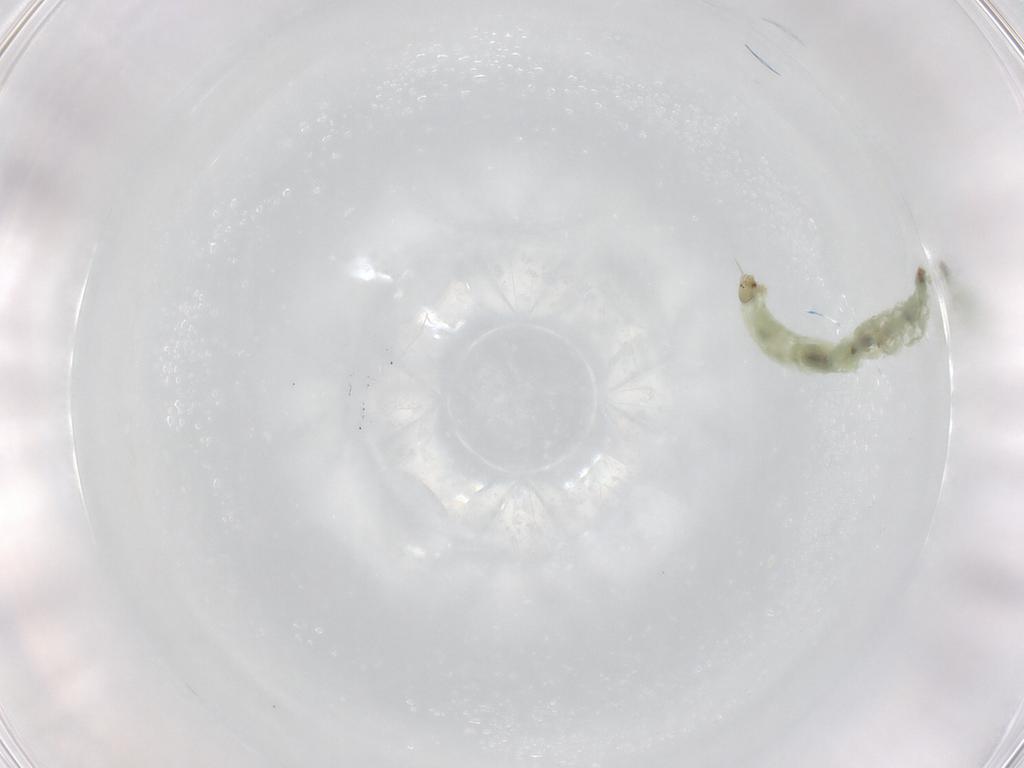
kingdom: Animalia
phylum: Arthropoda
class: Insecta
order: Diptera
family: Chironomidae
